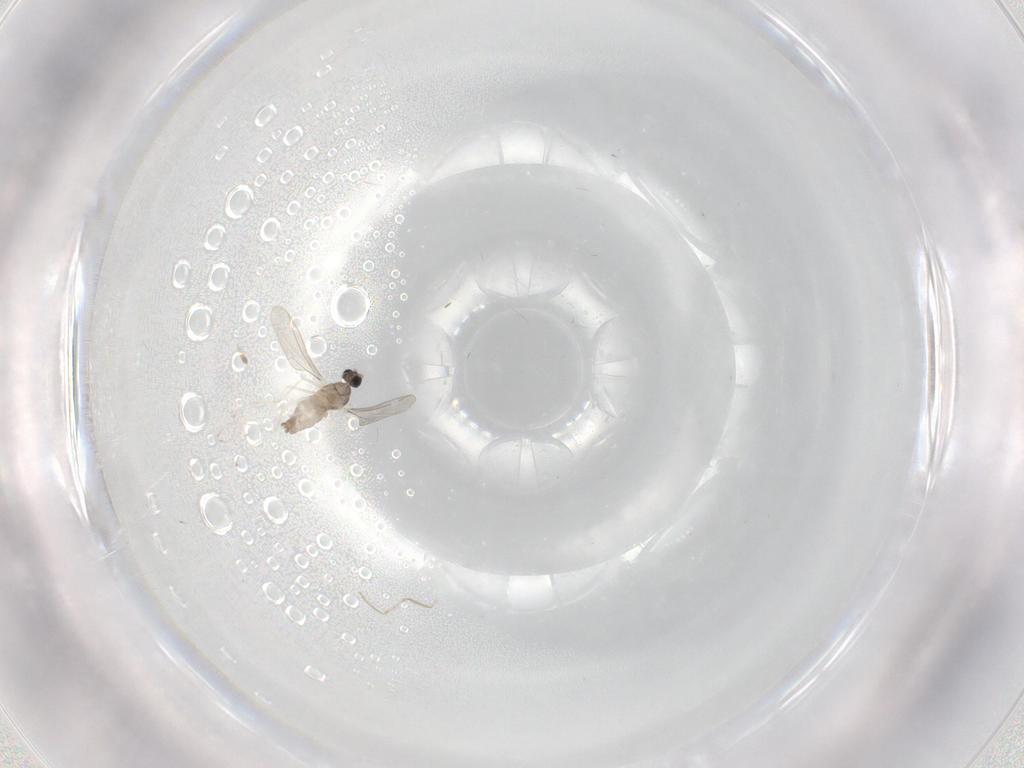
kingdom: Animalia
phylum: Arthropoda
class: Insecta
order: Diptera
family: Cecidomyiidae
